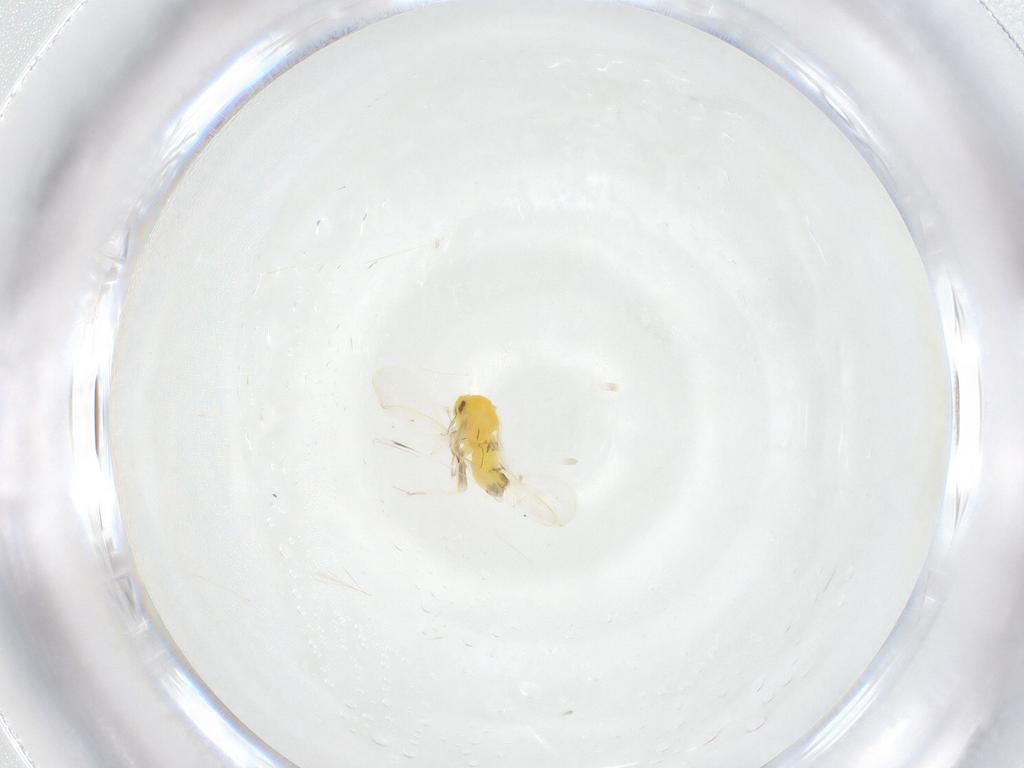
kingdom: Animalia
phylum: Arthropoda
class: Insecta
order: Hemiptera
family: Aleyrodidae
